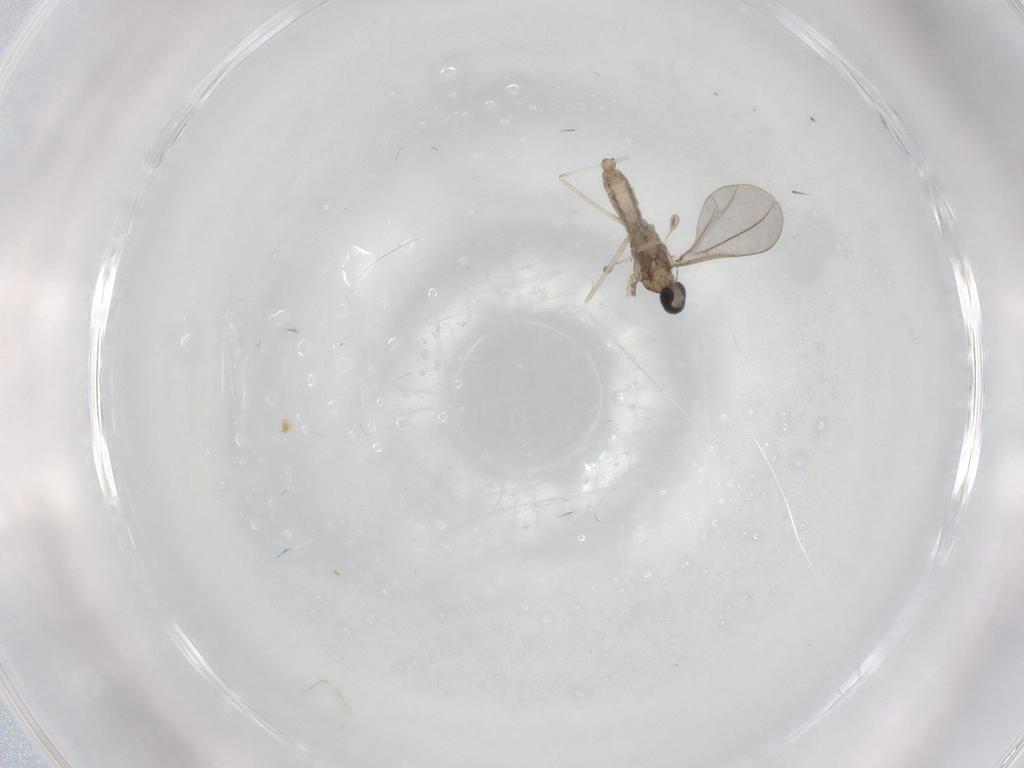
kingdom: Animalia
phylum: Arthropoda
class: Insecta
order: Diptera
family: Cecidomyiidae
